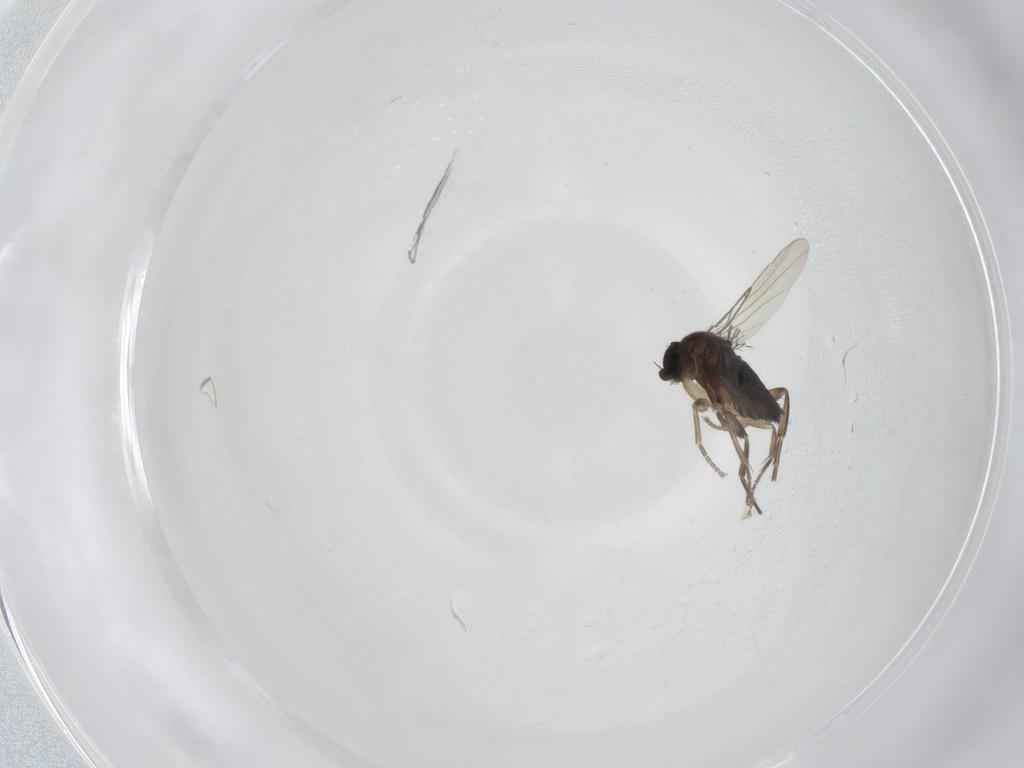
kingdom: Animalia
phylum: Arthropoda
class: Insecta
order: Diptera
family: Phoridae
